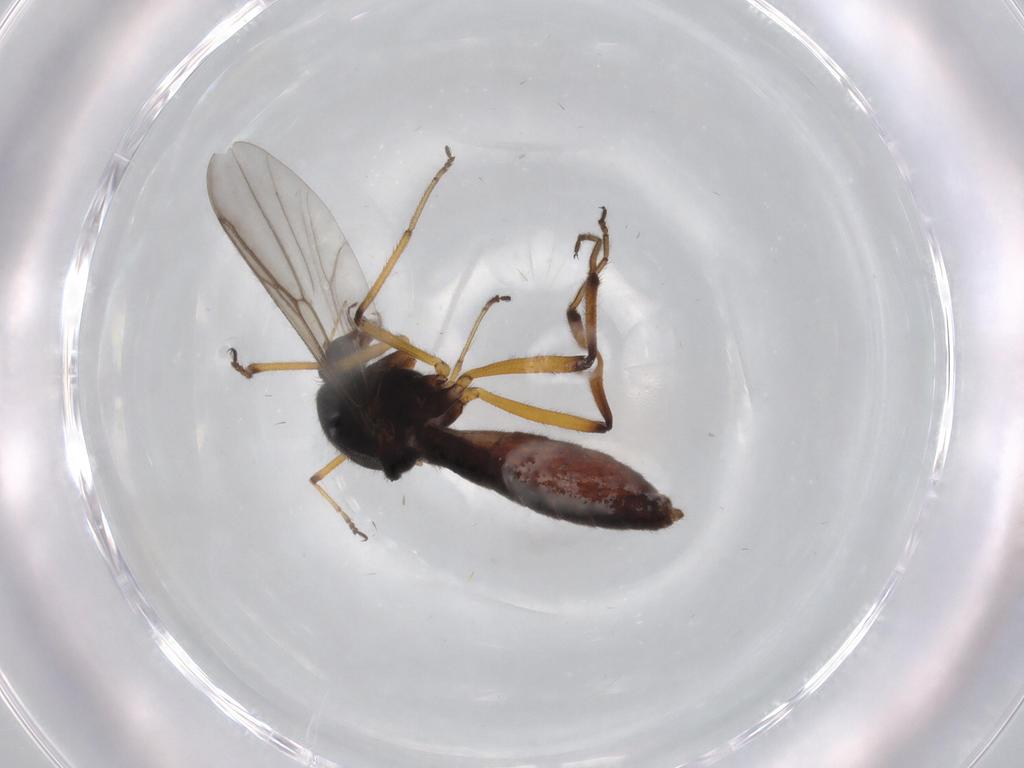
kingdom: Animalia
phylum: Arthropoda
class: Insecta
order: Diptera
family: Ceratopogonidae
